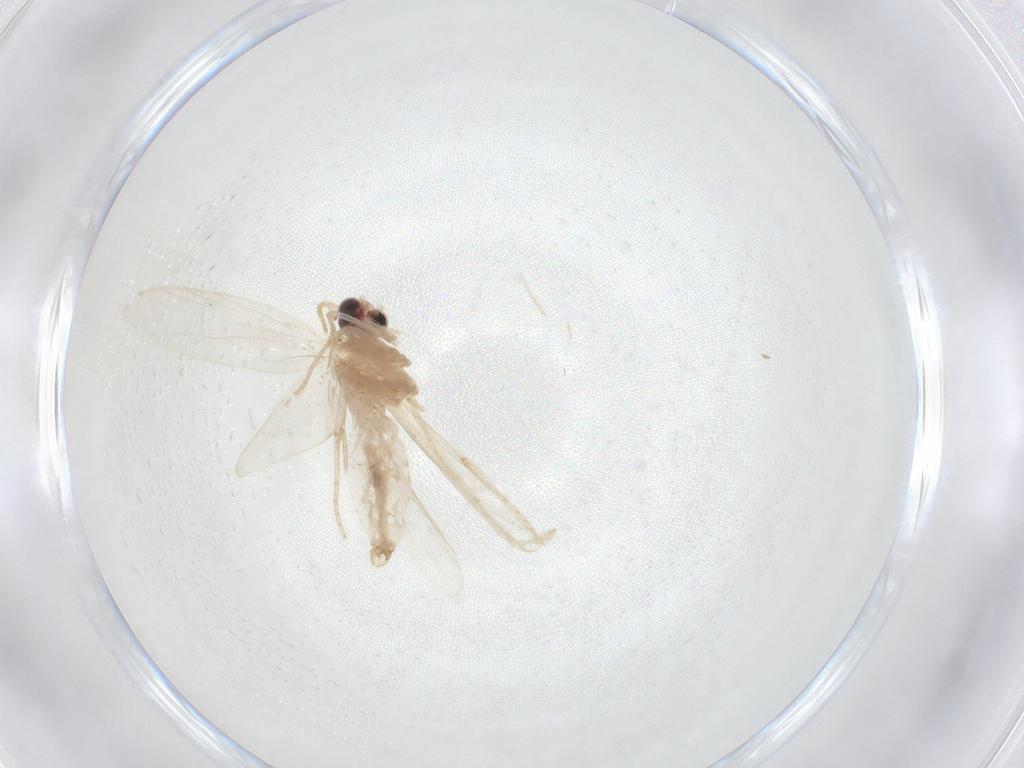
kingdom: Animalia
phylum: Arthropoda
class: Insecta
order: Lepidoptera
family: Psychidae
